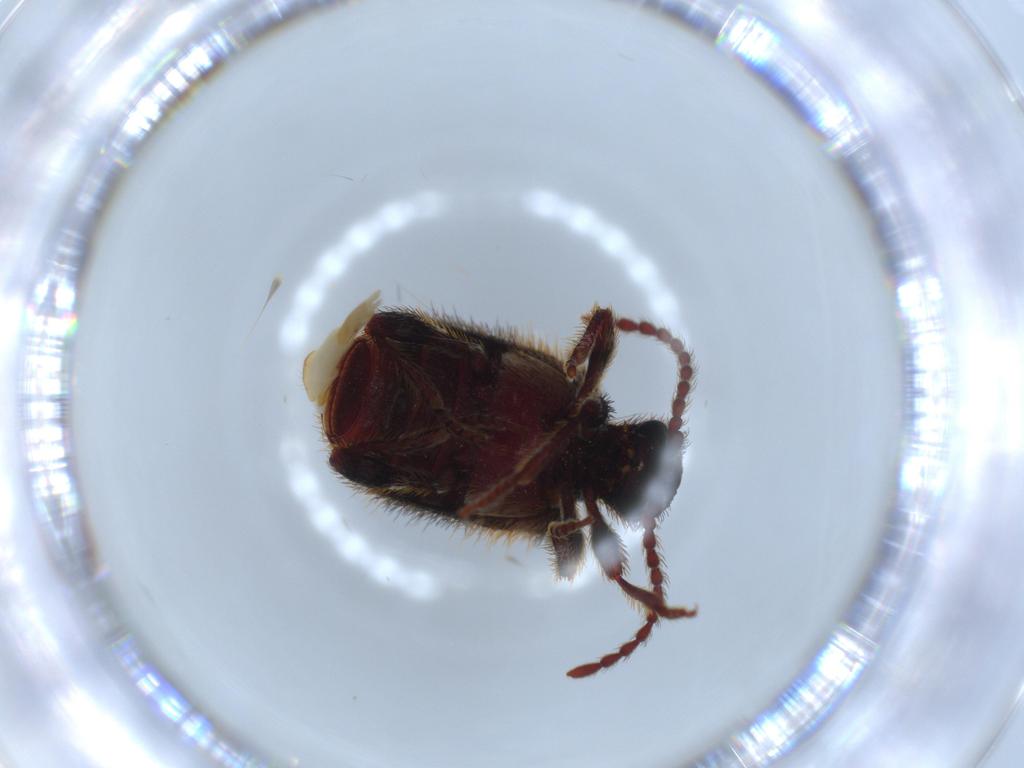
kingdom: Animalia
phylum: Arthropoda
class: Insecta
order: Coleoptera
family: Ptinidae
